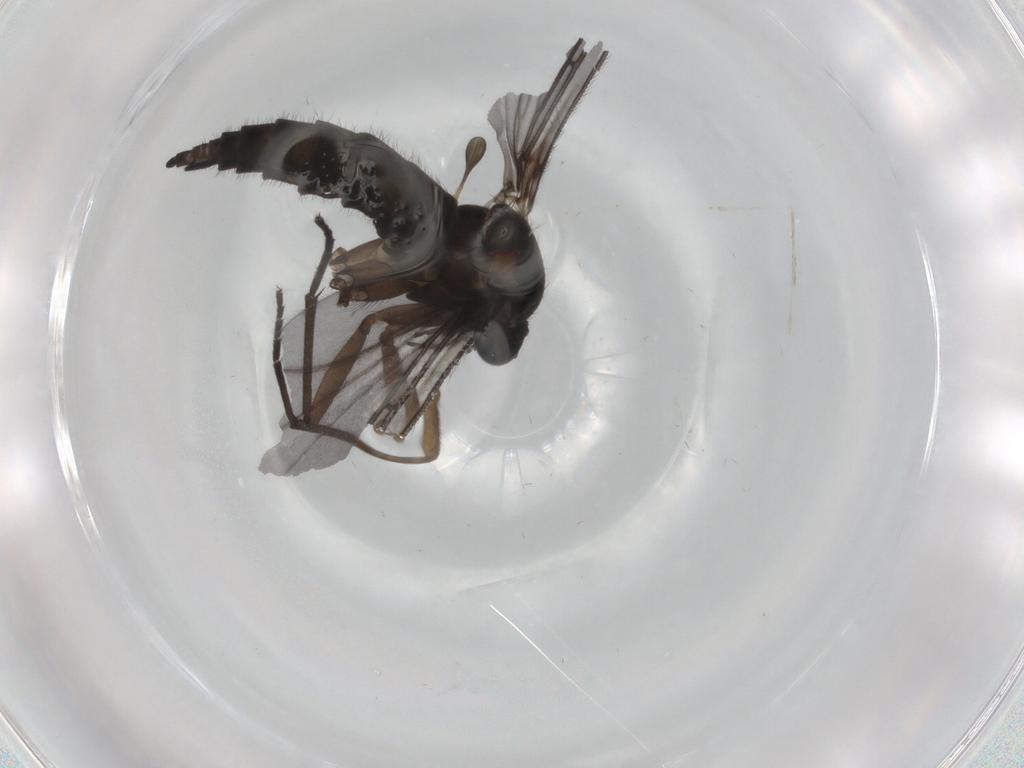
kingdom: Animalia
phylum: Arthropoda
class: Insecta
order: Diptera
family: Sciaridae
